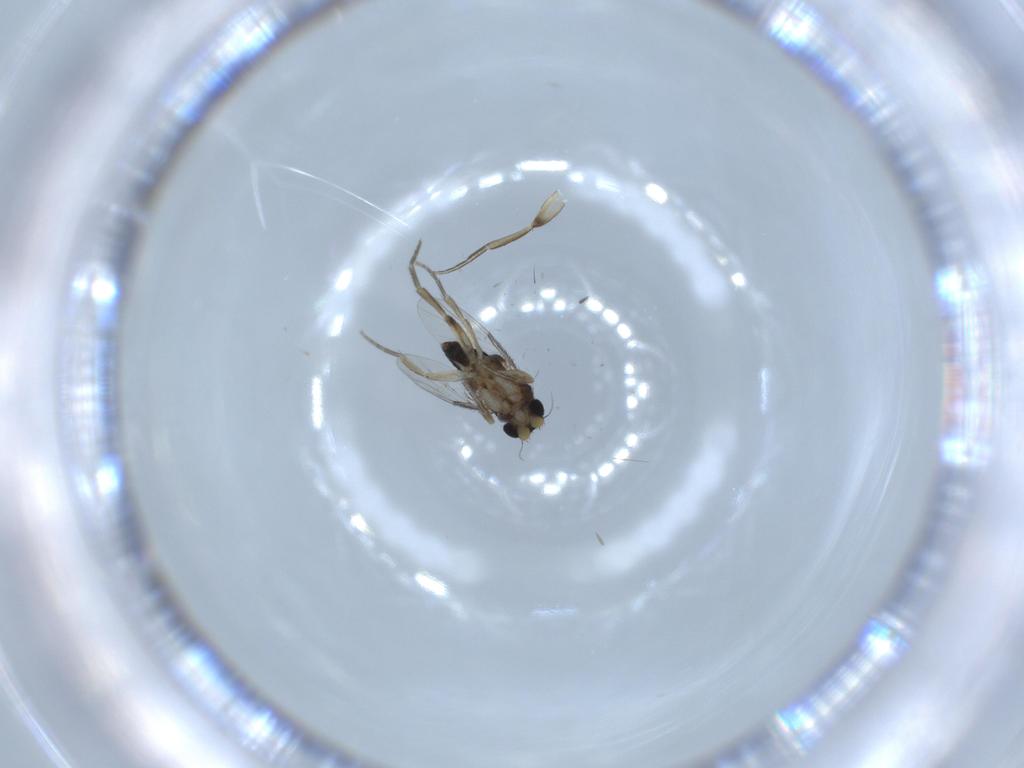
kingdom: Animalia
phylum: Arthropoda
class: Insecta
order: Diptera
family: Phoridae
